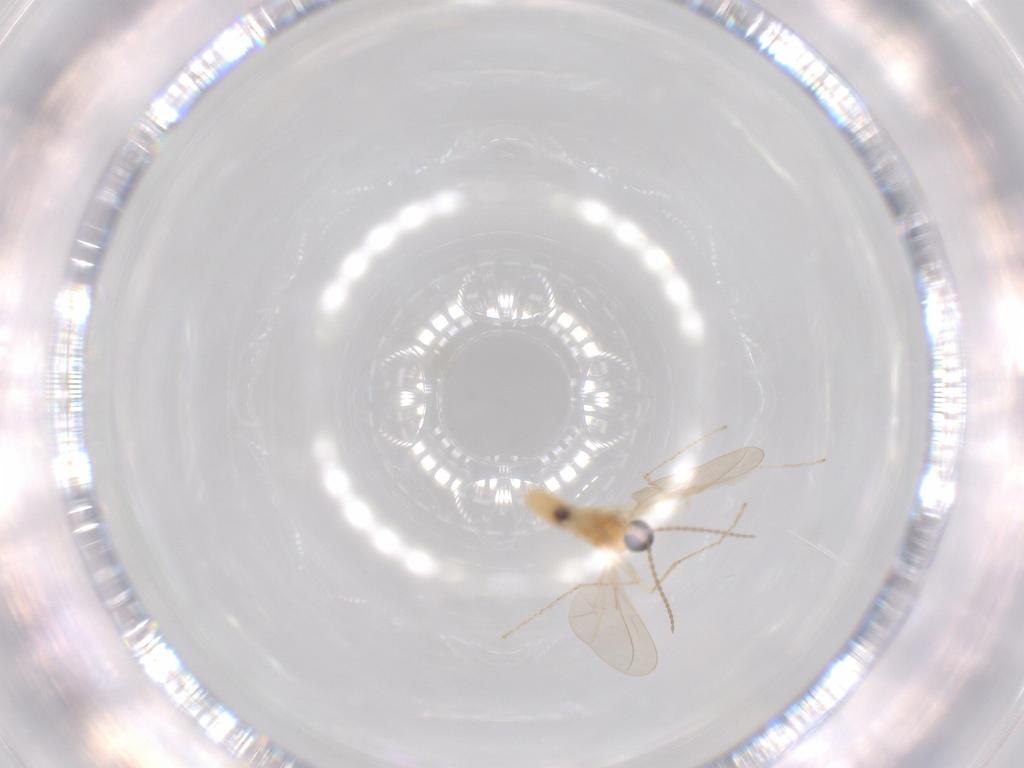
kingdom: Animalia
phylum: Arthropoda
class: Insecta
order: Diptera
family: Cecidomyiidae
